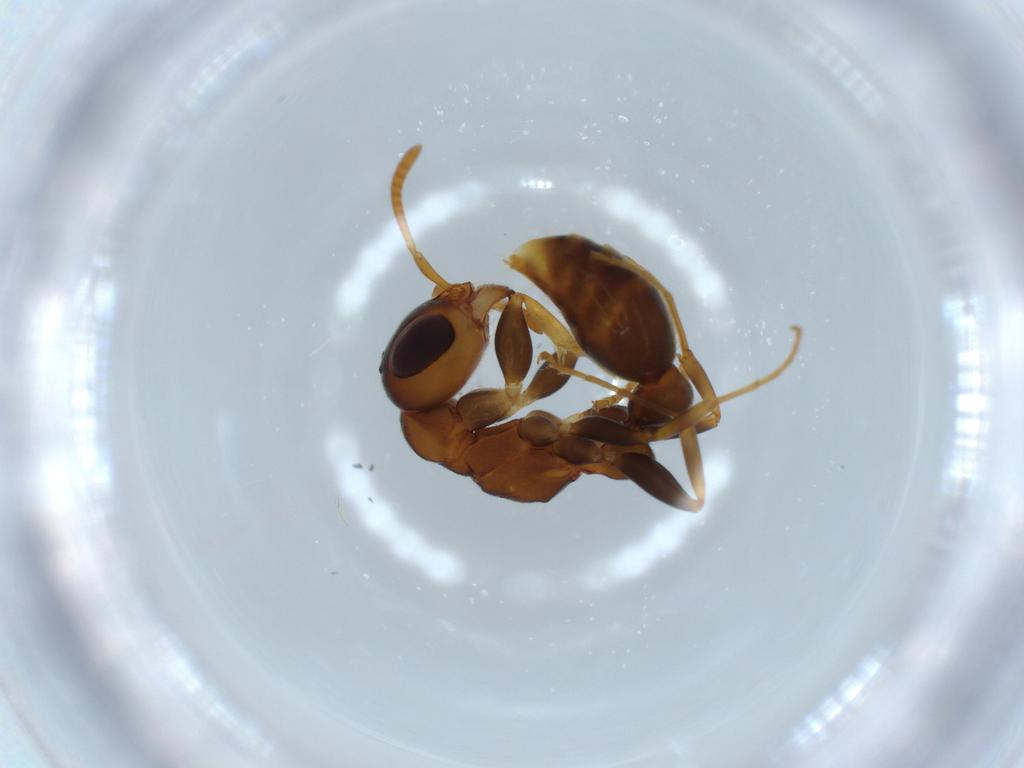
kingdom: Animalia
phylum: Arthropoda
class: Insecta
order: Hymenoptera
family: Formicidae
